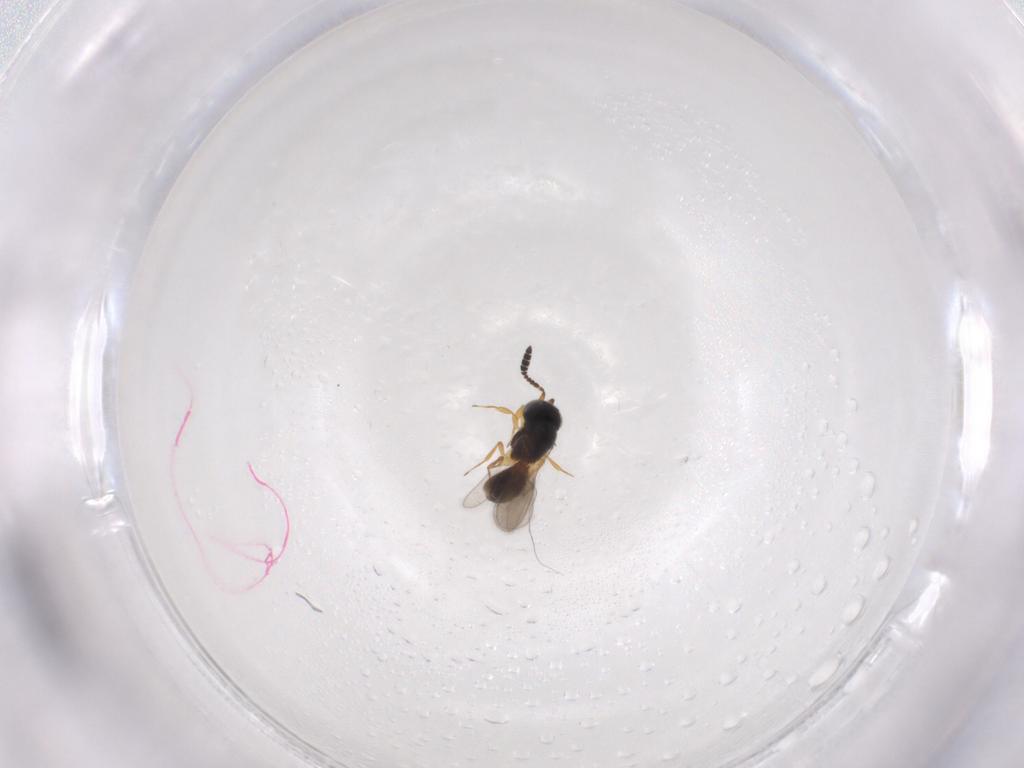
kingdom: Animalia
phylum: Arthropoda
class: Insecta
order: Hymenoptera
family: Scelionidae
